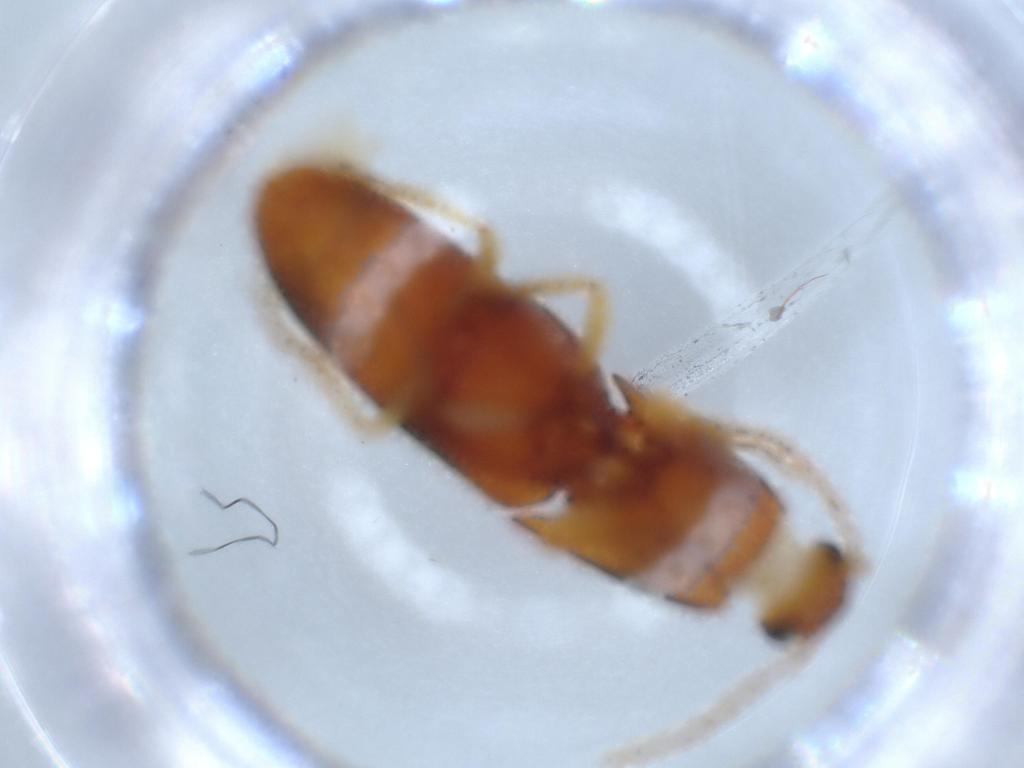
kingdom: Animalia
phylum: Arthropoda
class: Insecta
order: Coleoptera
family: Elateridae
